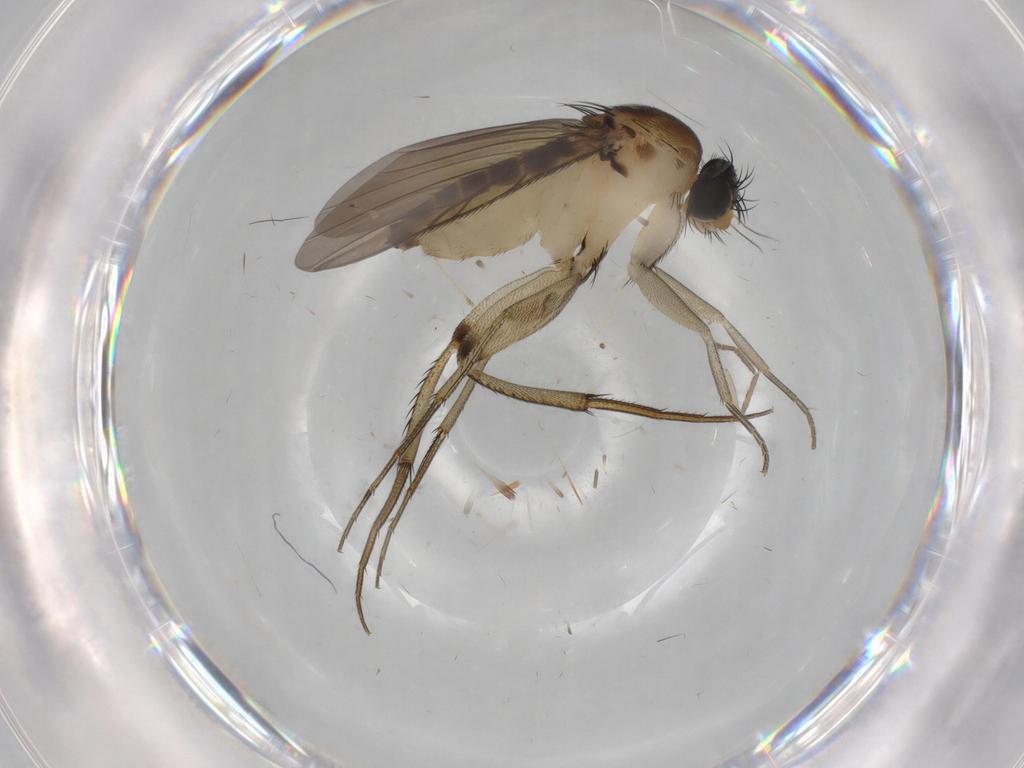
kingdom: Animalia
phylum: Arthropoda
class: Insecta
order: Diptera
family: Phoridae
